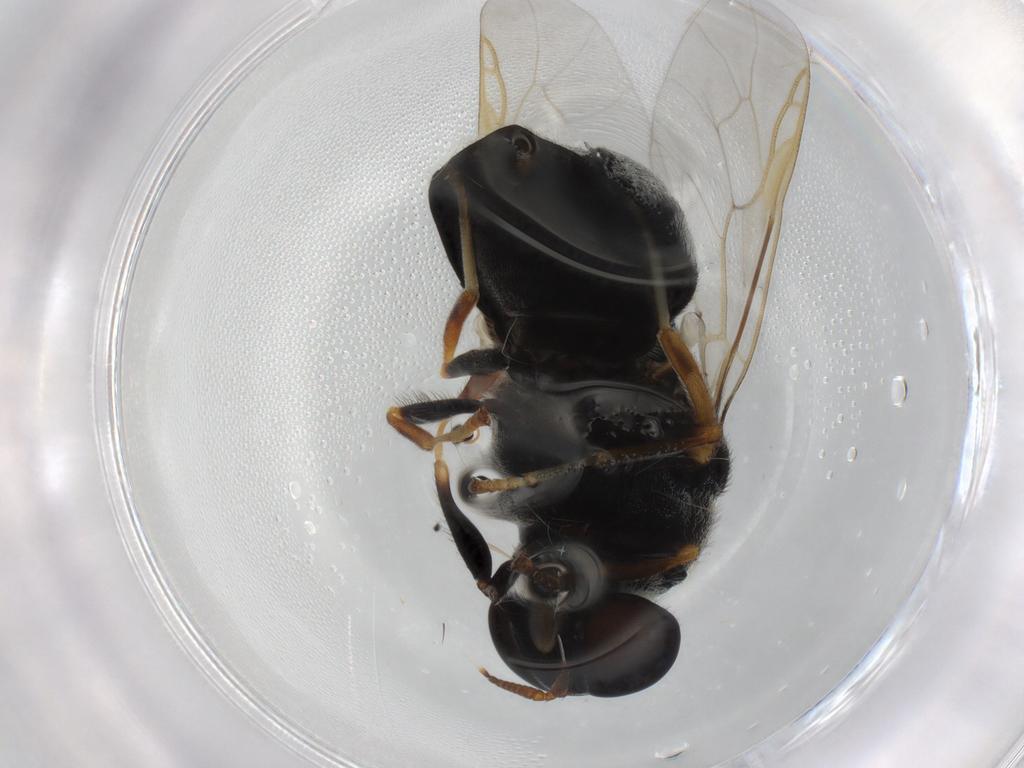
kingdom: Animalia
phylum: Arthropoda
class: Insecta
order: Diptera
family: Stratiomyidae
